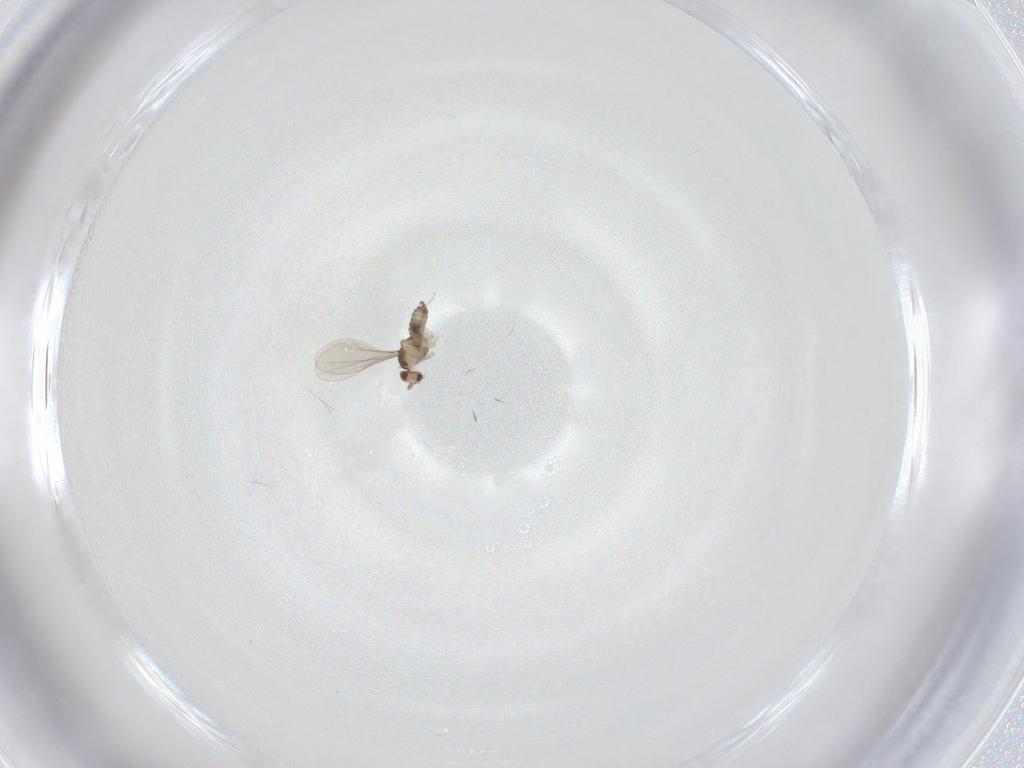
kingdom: Animalia
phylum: Arthropoda
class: Insecta
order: Diptera
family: Cecidomyiidae
